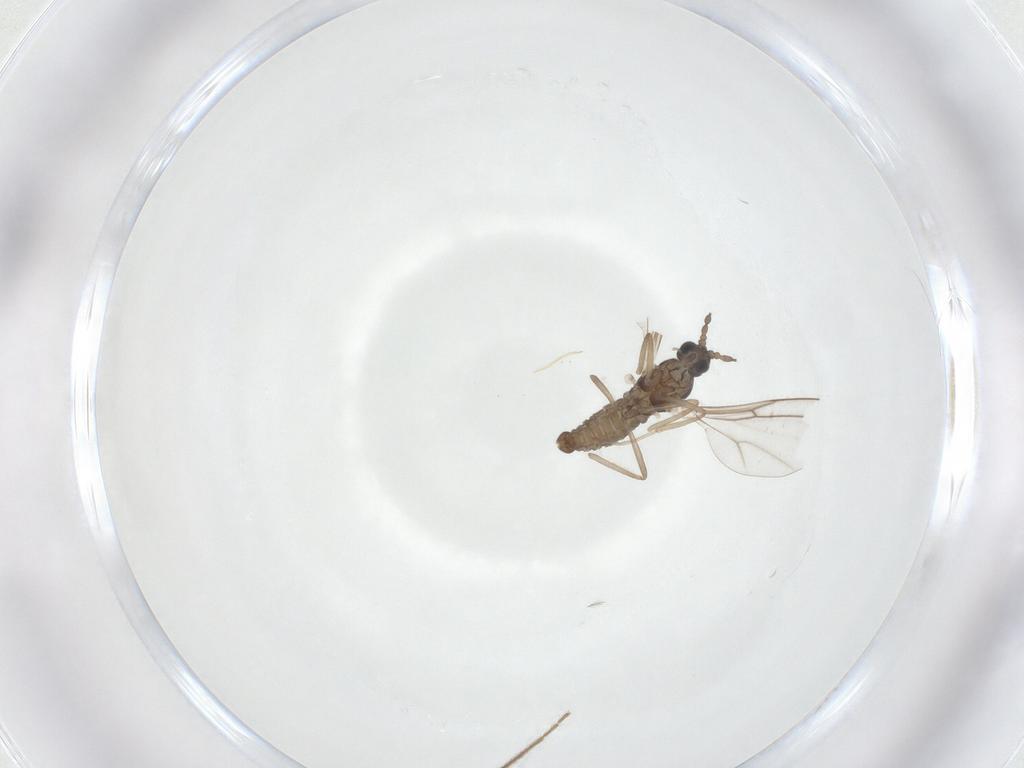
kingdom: Animalia
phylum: Arthropoda
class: Insecta
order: Diptera
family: Cecidomyiidae
